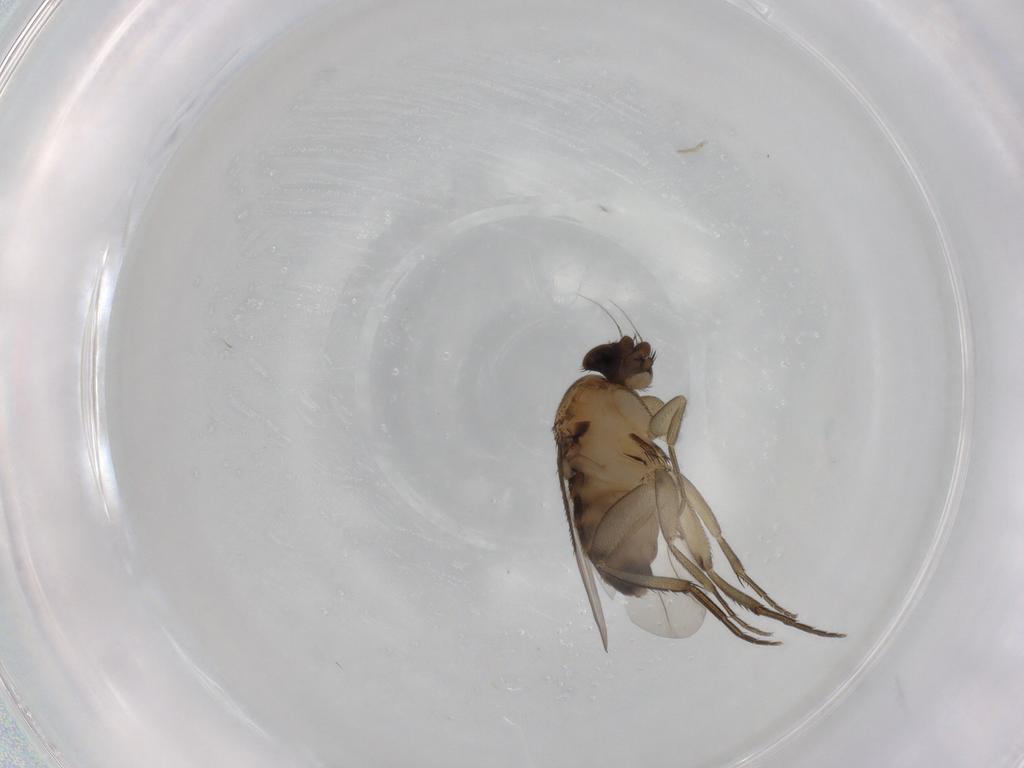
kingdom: Animalia
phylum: Arthropoda
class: Insecta
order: Diptera
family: Phoridae
